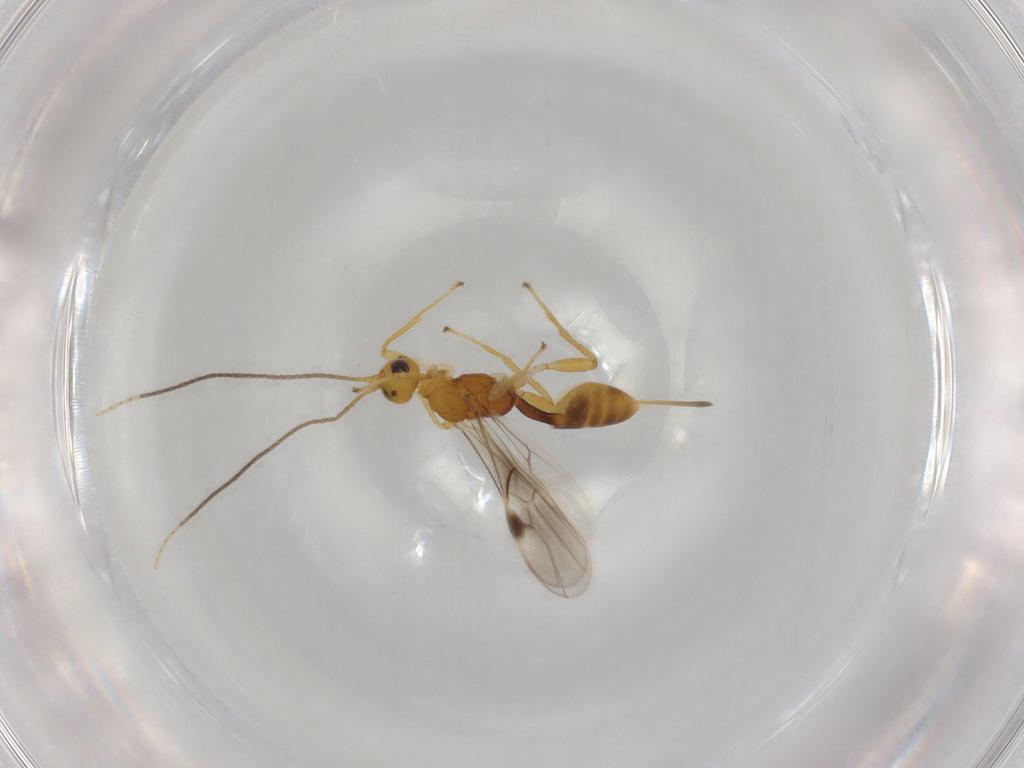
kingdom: Animalia
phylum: Arthropoda
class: Insecta
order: Hymenoptera
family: Braconidae
